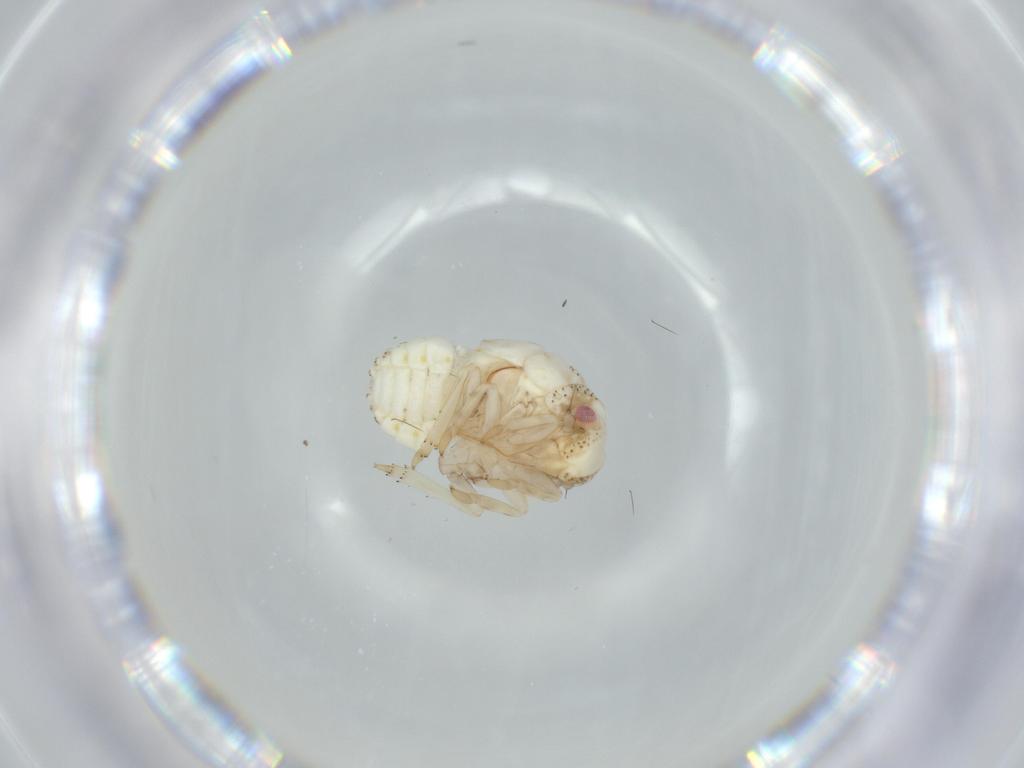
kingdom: Animalia
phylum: Arthropoda
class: Insecta
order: Hemiptera
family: Acanaloniidae
